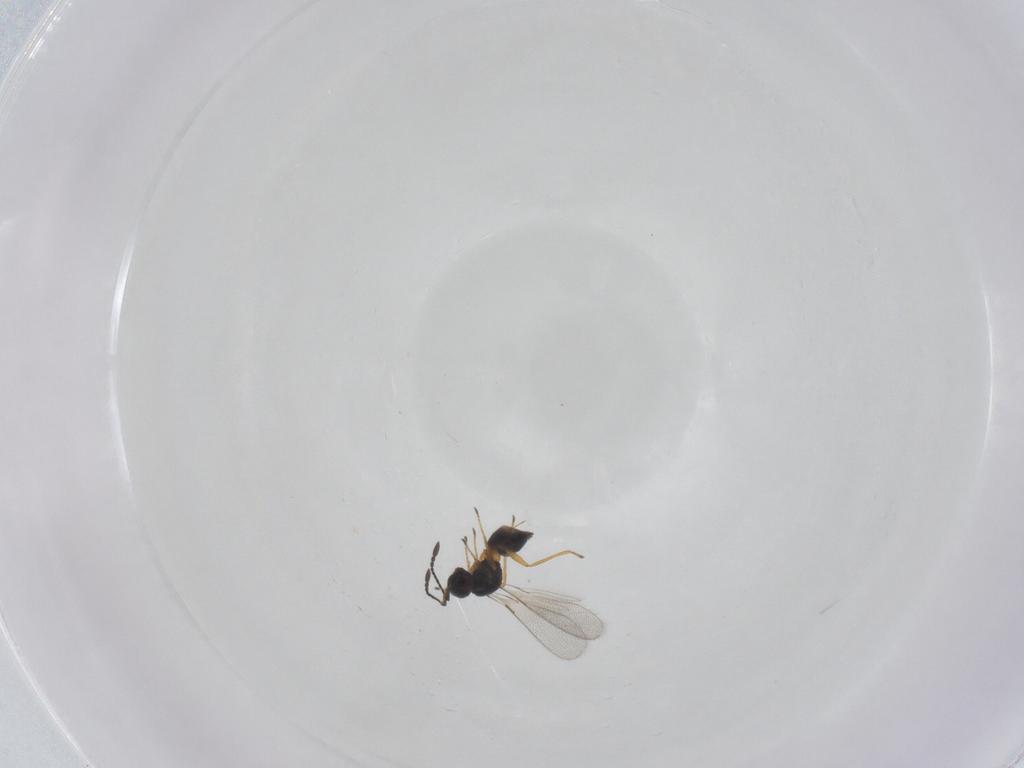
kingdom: Animalia
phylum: Arthropoda
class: Insecta
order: Hymenoptera
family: Mymaridae
